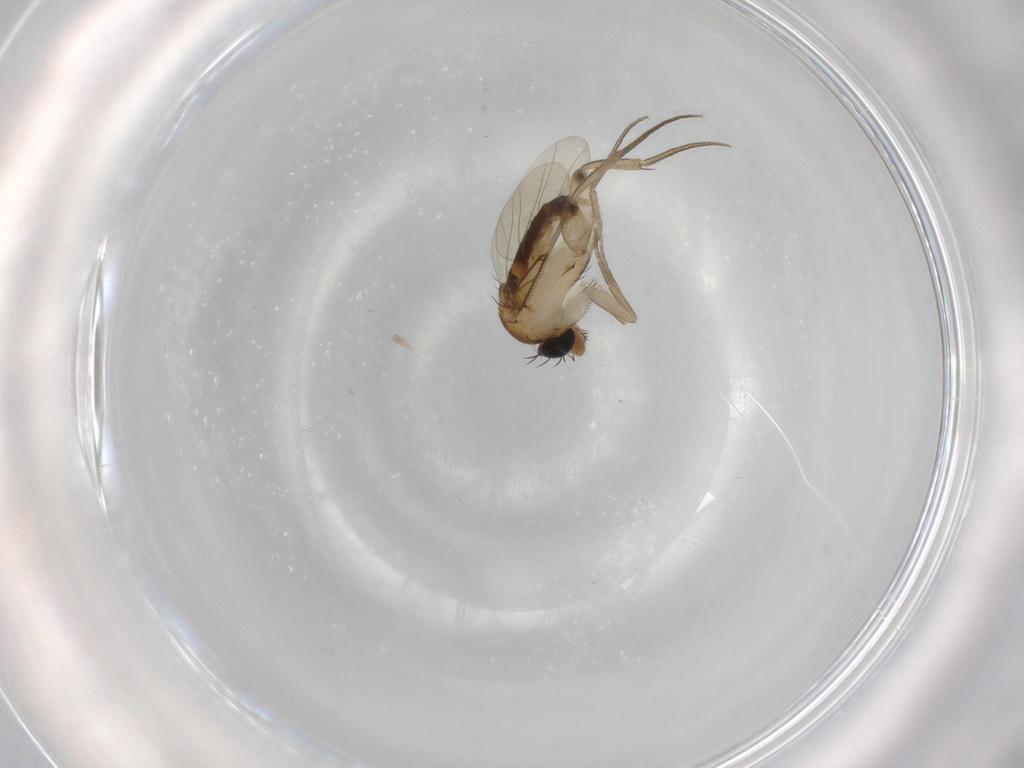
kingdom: Animalia
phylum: Arthropoda
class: Insecta
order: Diptera
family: Phoridae
